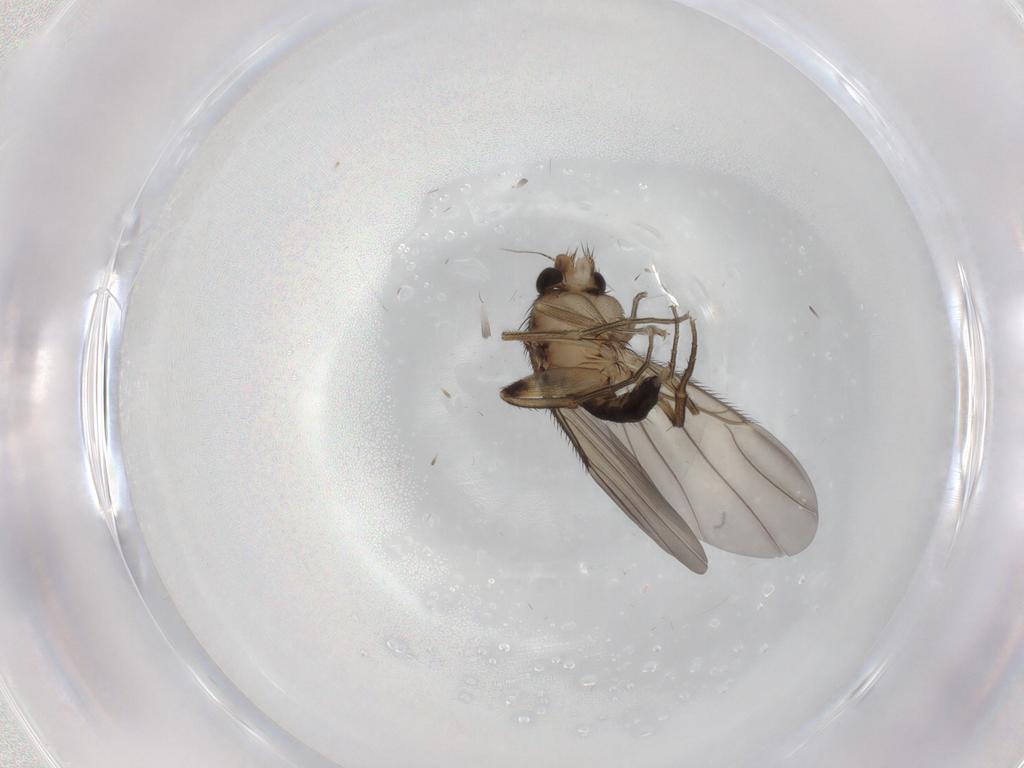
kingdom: Animalia
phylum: Arthropoda
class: Insecta
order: Diptera
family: Phoridae
